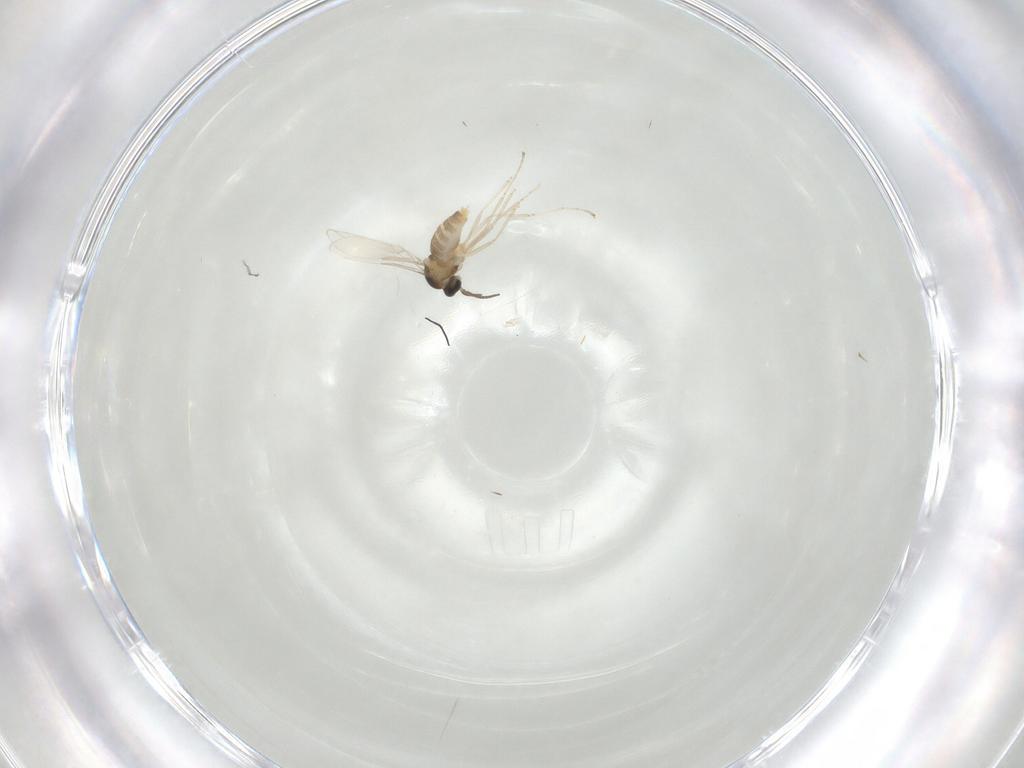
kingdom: Animalia
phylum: Arthropoda
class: Insecta
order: Diptera
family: Cecidomyiidae
